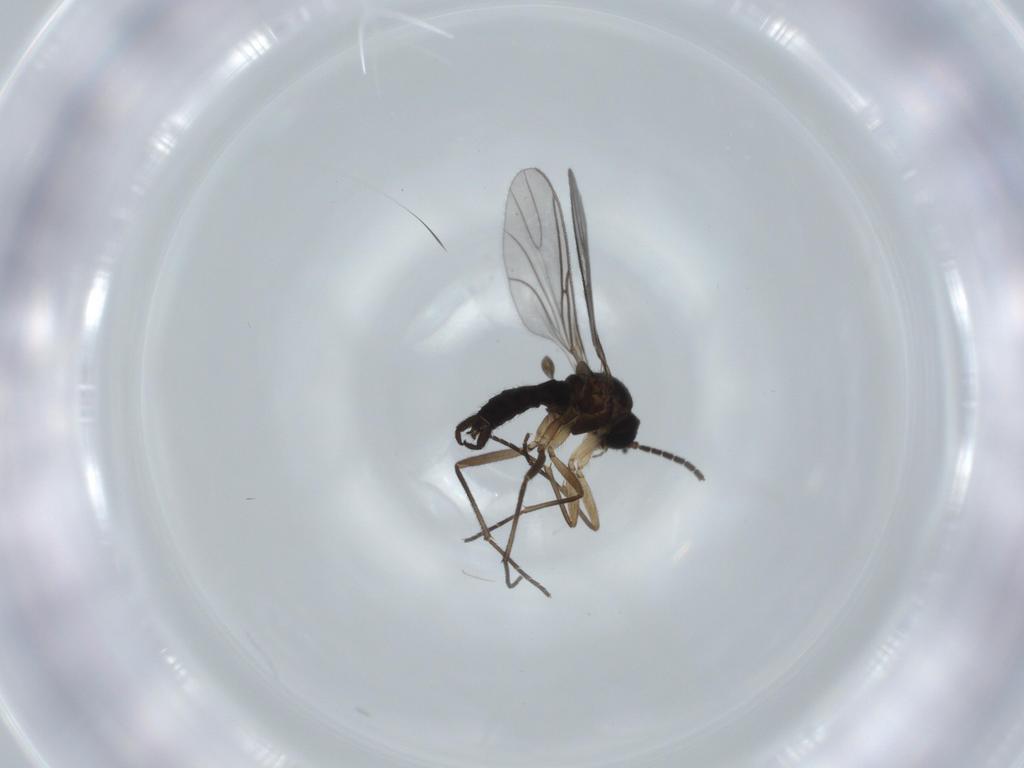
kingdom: Animalia
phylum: Arthropoda
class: Insecta
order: Diptera
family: Sciaridae
